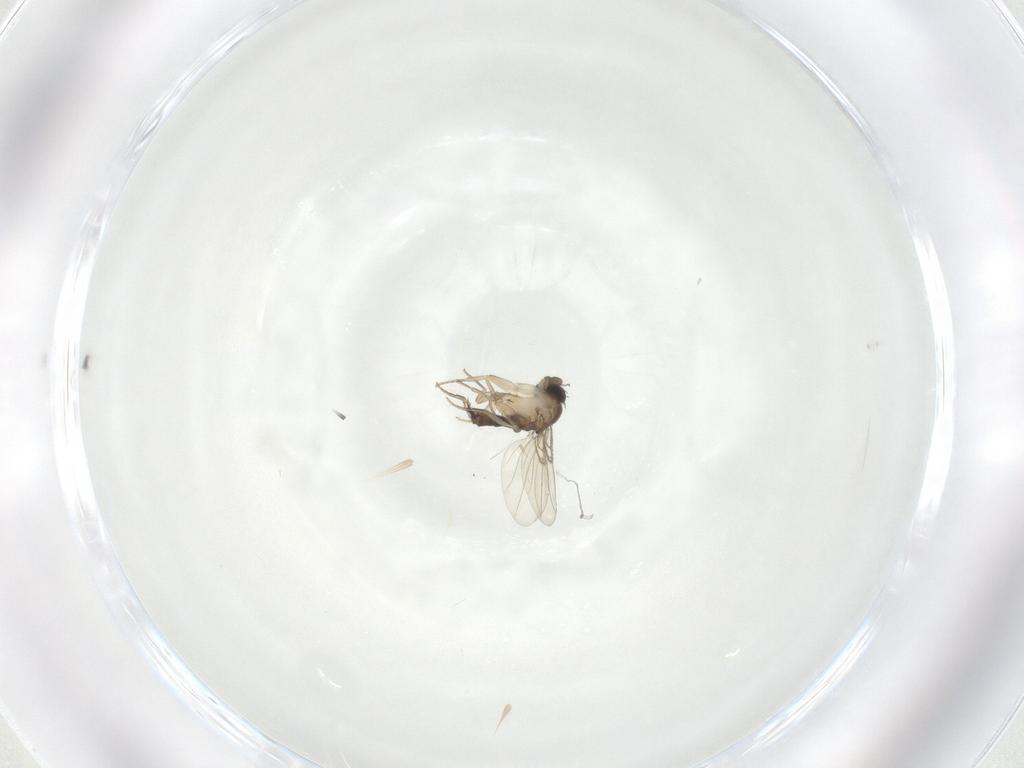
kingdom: Animalia
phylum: Arthropoda
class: Insecta
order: Diptera
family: Phoridae
